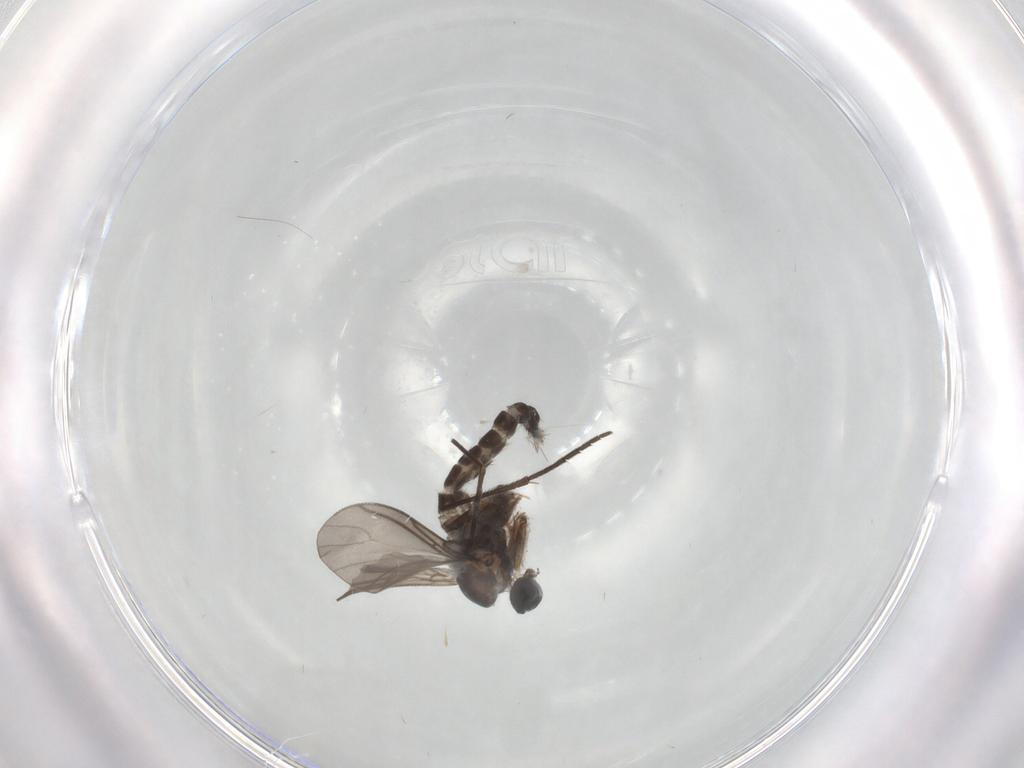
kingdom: Animalia
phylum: Arthropoda
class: Insecta
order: Diptera
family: Sciaridae
